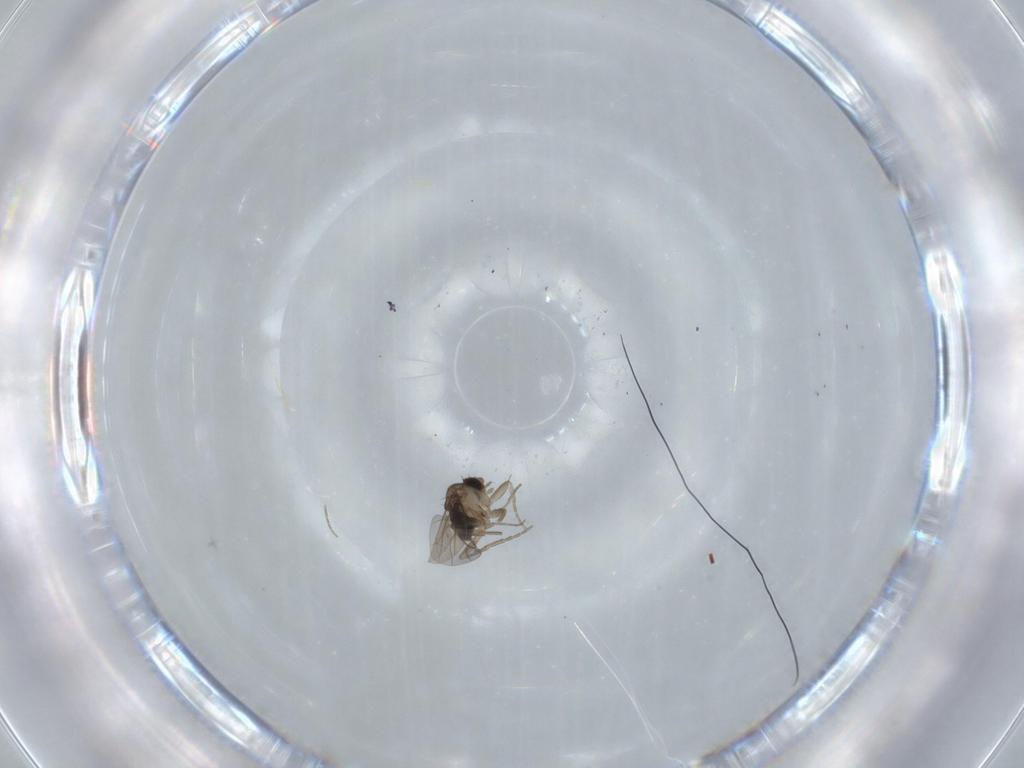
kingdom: Animalia
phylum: Arthropoda
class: Insecta
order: Diptera
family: Phoridae
